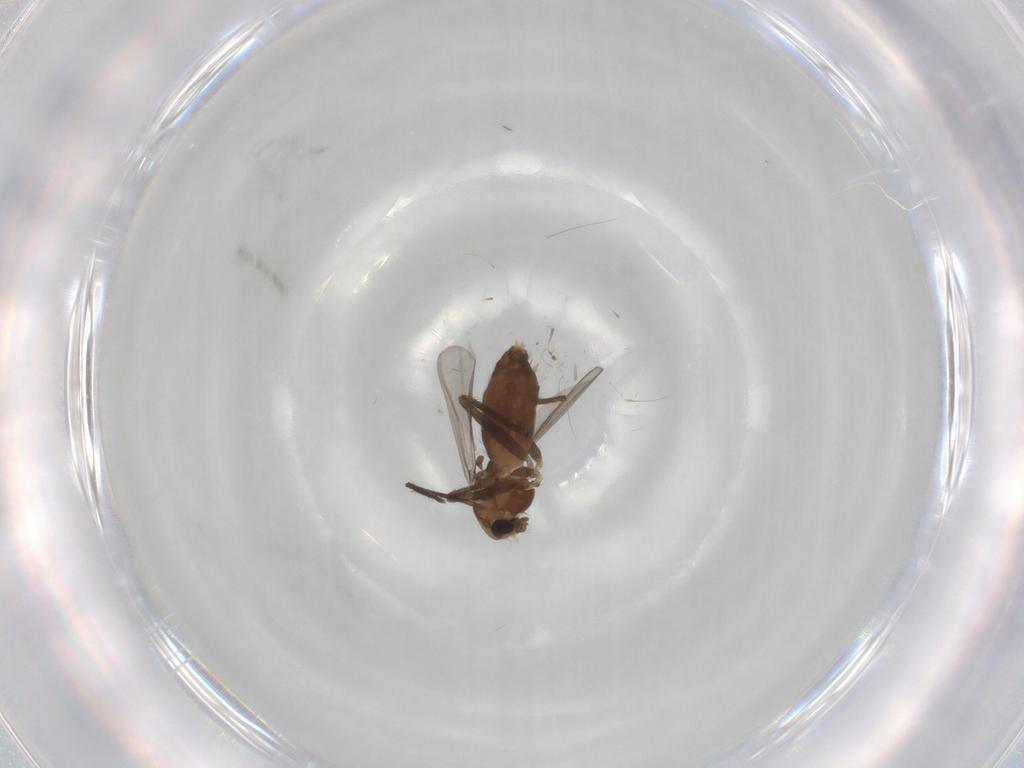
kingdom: Animalia
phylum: Arthropoda
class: Insecta
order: Diptera
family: Chironomidae
